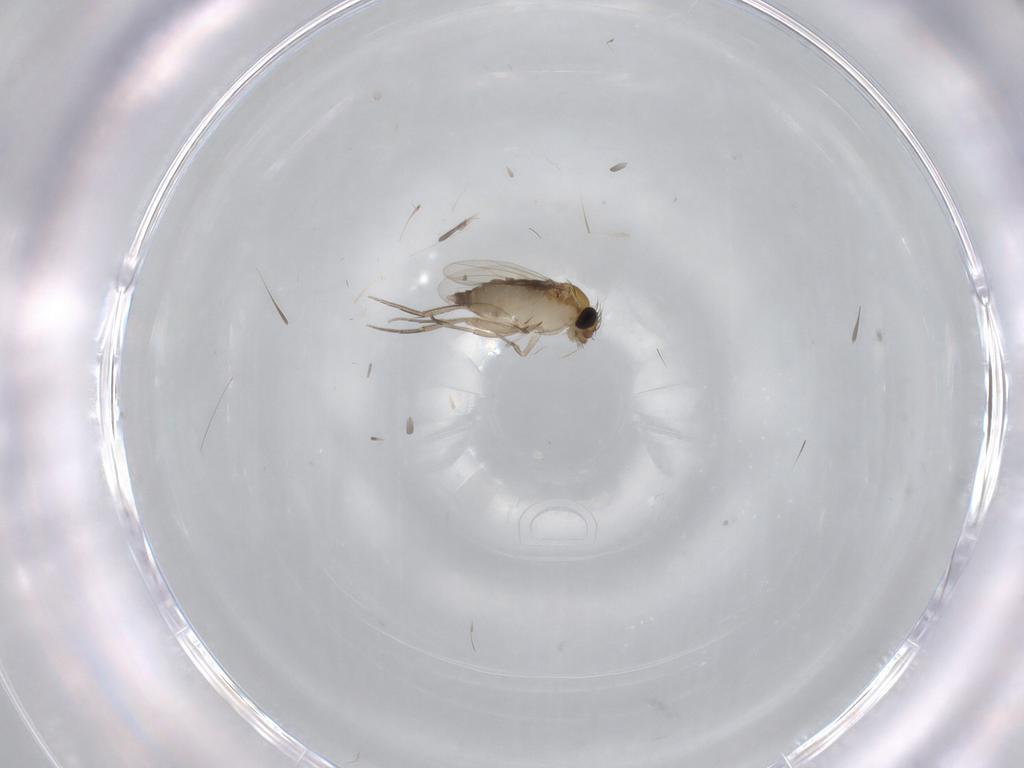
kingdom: Animalia
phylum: Arthropoda
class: Insecta
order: Diptera
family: Phoridae
